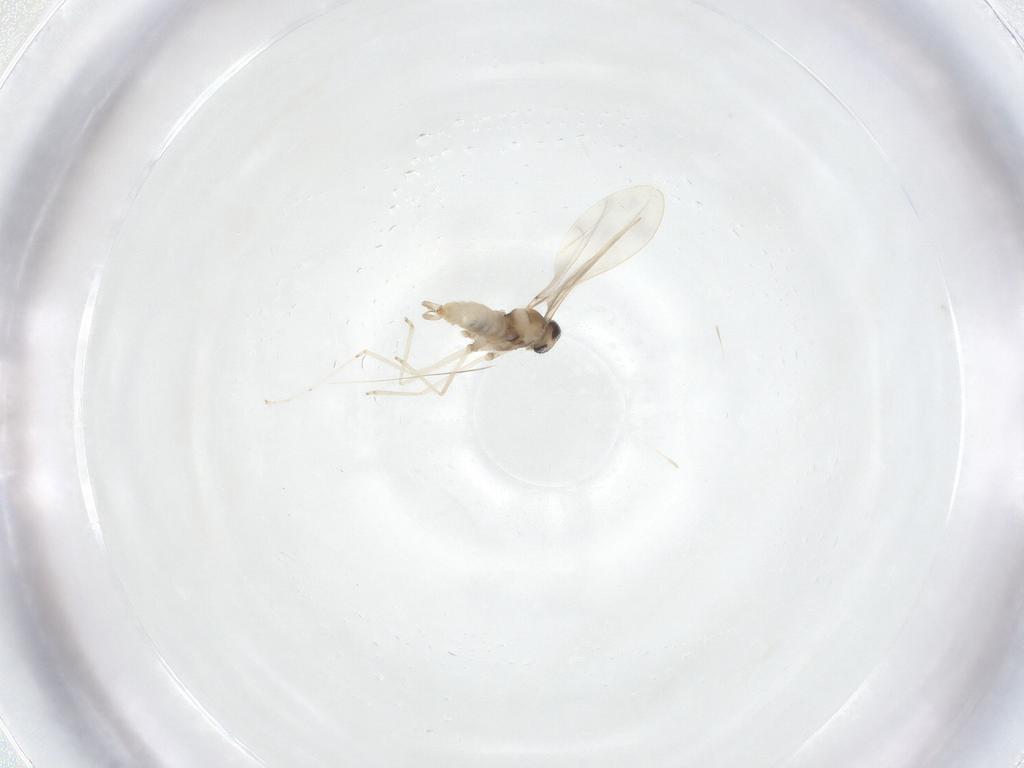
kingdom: Animalia
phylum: Arthropoda
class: Insecta
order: Diptera
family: Cecidomyiidae
